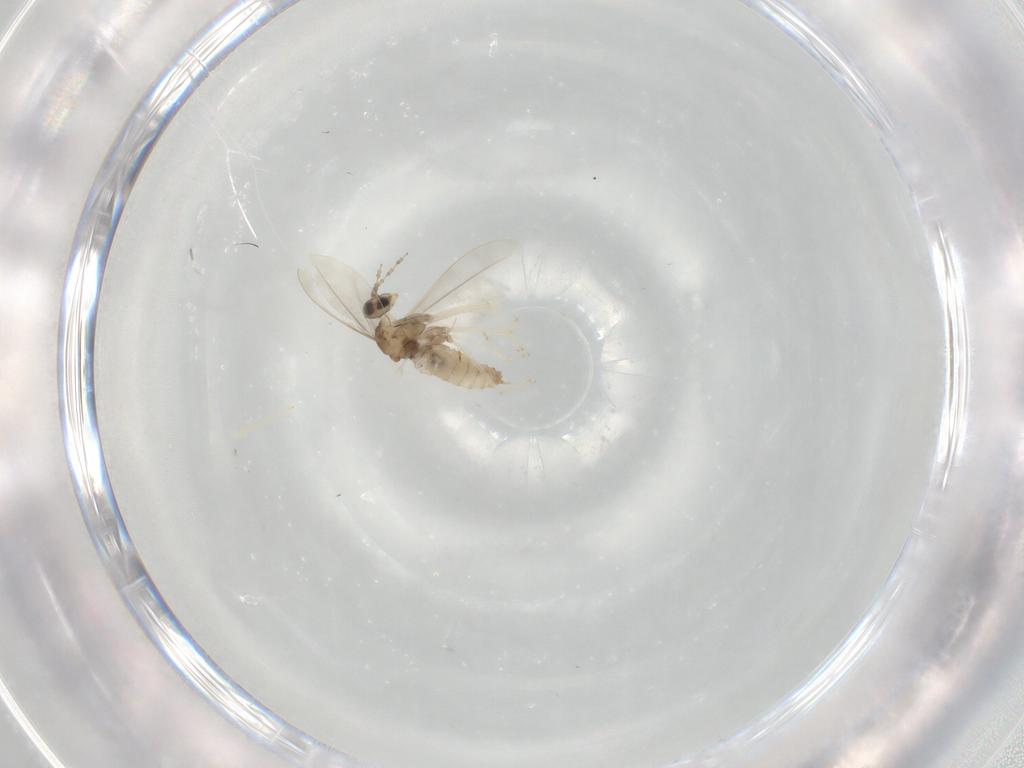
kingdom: Animalia
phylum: Arthropoda
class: Insecta
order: Diptera
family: Cecidomyiidae
